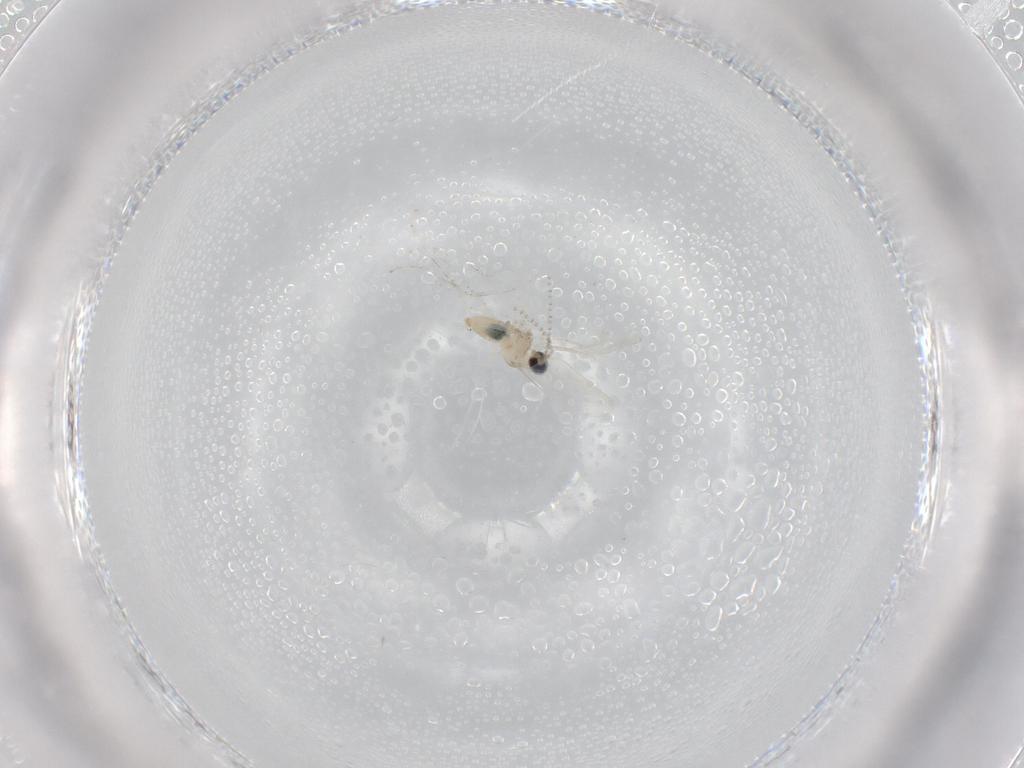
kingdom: Animalia
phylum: Arthropoda
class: Insecta
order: Diptera
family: Cecidomyiidae
